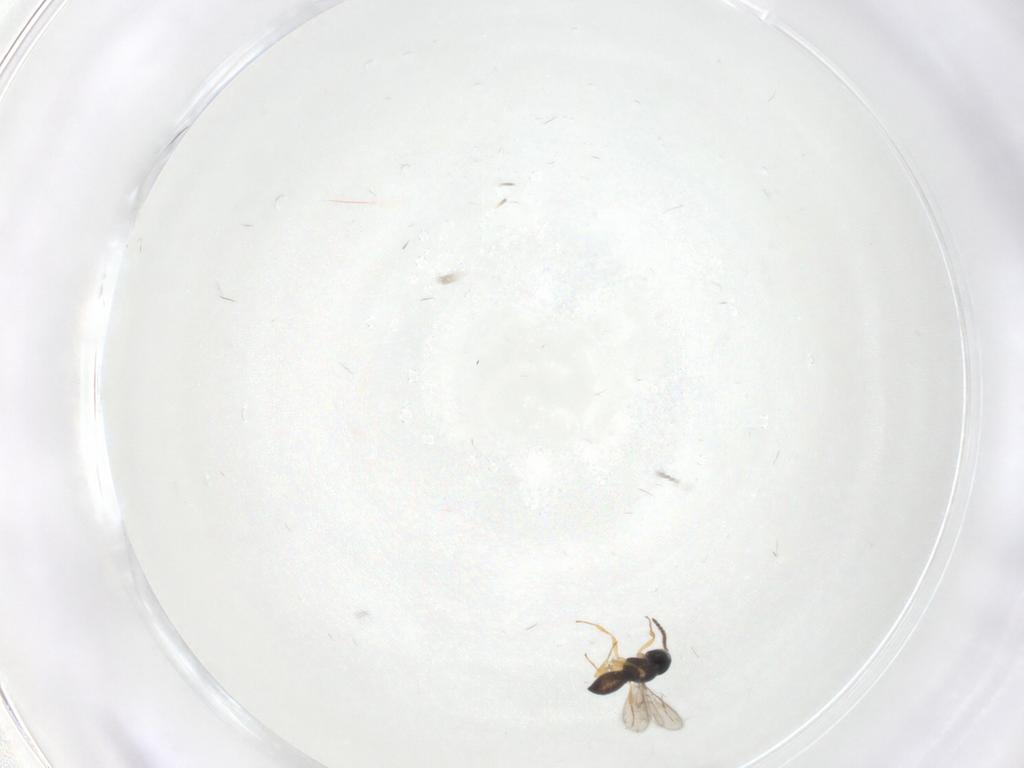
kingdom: Animalia
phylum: Arthropoda
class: Insecta
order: Hymenoptera
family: Scelionidae
